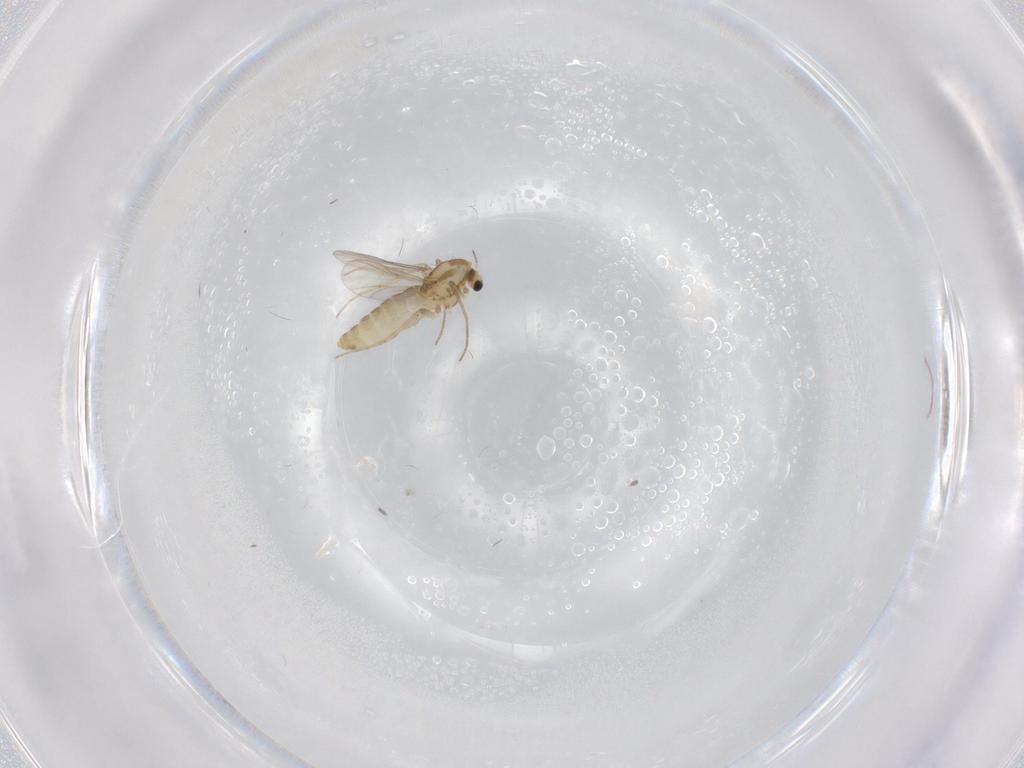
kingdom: Animalia
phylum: Arthropoda
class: Insecta
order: Diptera
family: Chironomidae
